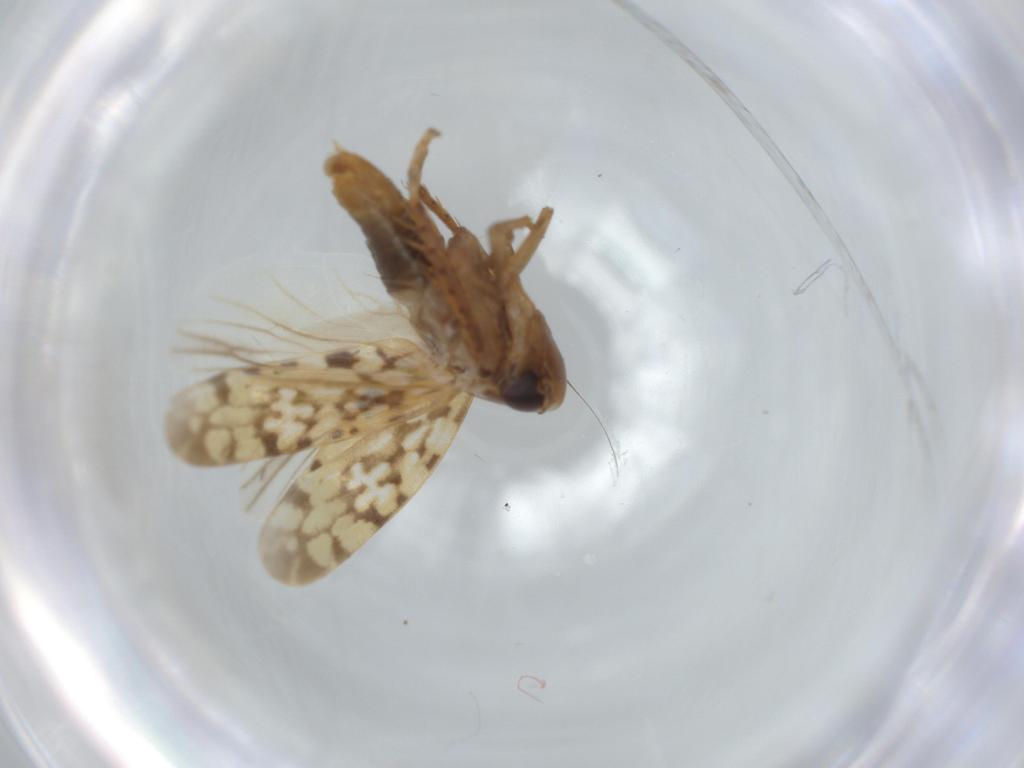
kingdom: Animalia
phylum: Arthropoda
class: Insecta
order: Hemiptera
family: Cicadellidae
